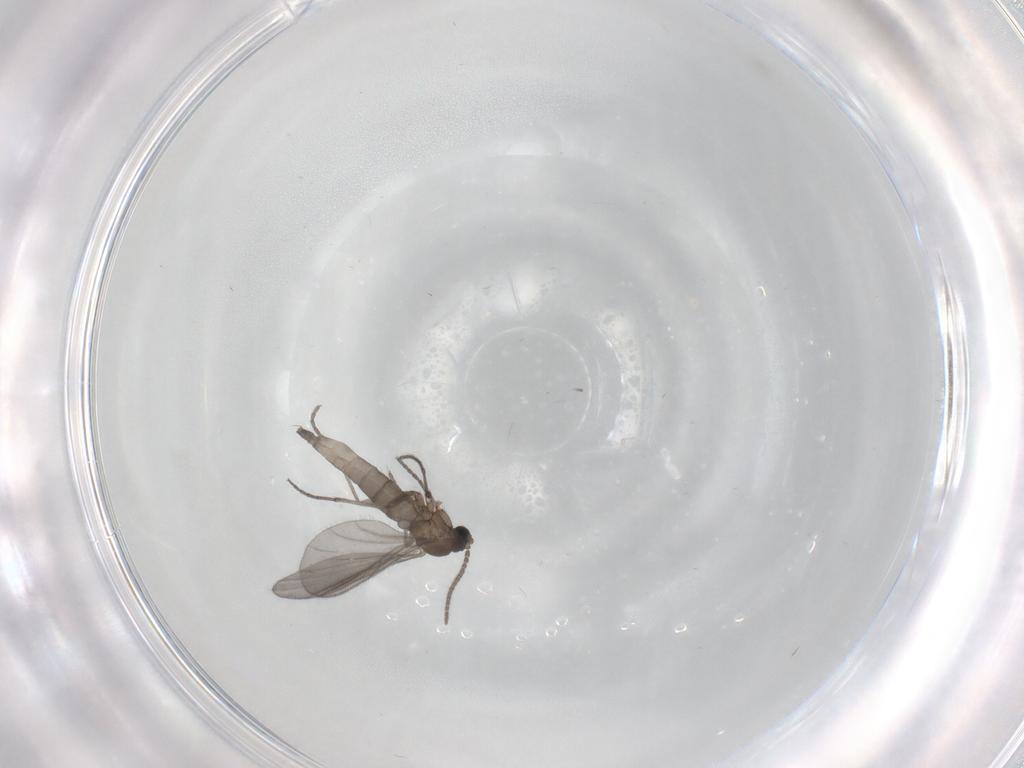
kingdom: Animalia
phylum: Arthropoda
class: Insecta
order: Diptera
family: Sciaridae
